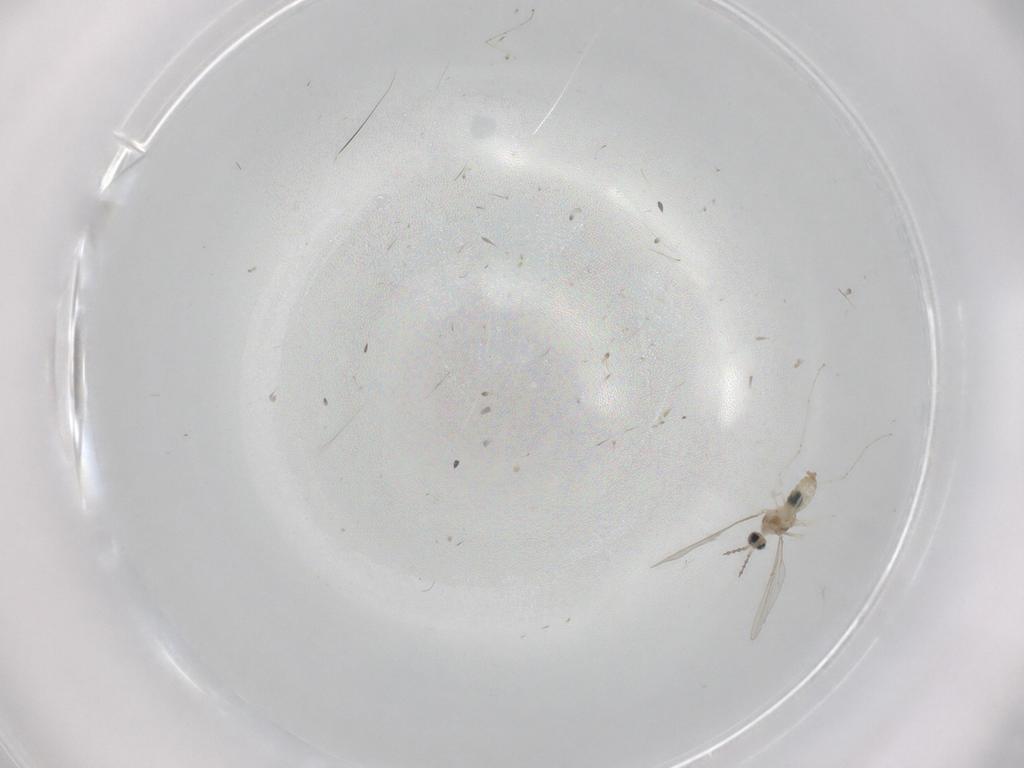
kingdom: Animalia
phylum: Arthropoda
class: Insecta
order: Diptera
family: Cecidomyiidae
